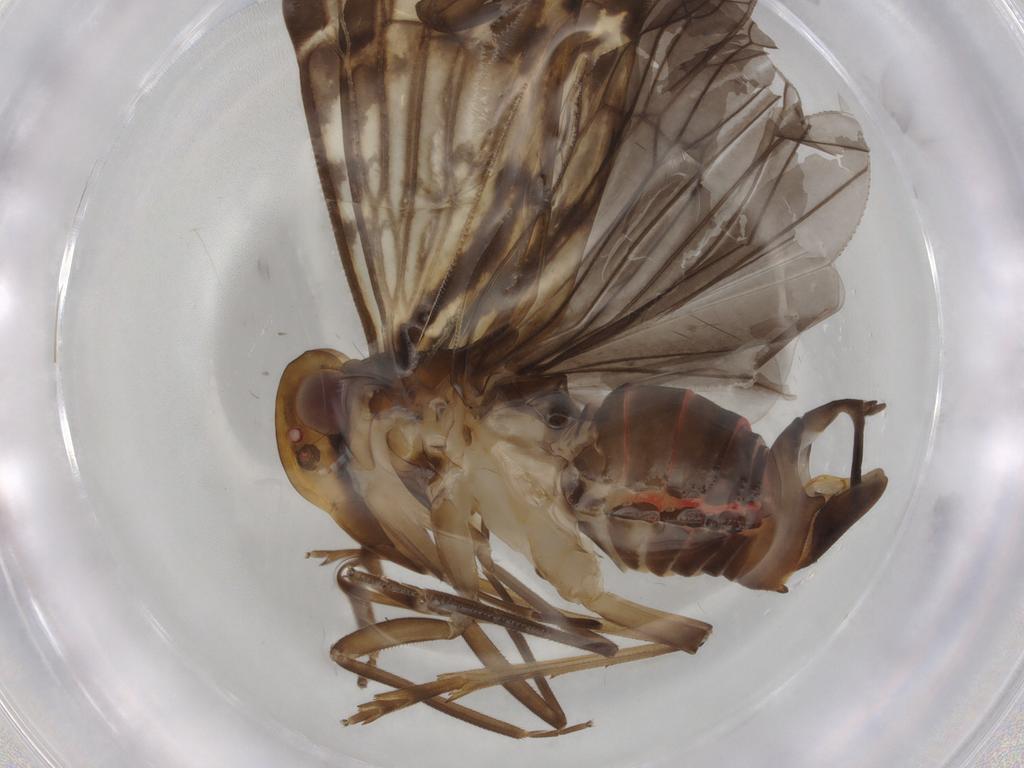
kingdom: Animalia
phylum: Arthropoda
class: Insecta
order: Hemiptera
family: Cixiidae
